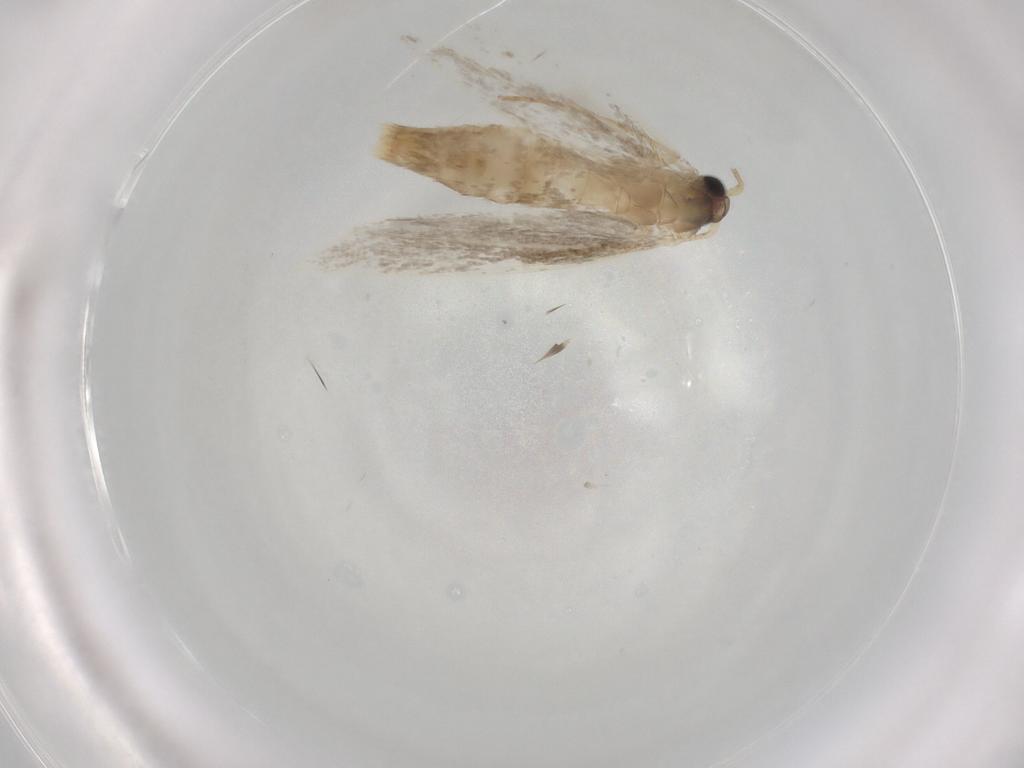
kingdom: Animalia
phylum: Arthropoda
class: Insecta
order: Lepidoptera
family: Tineidae
